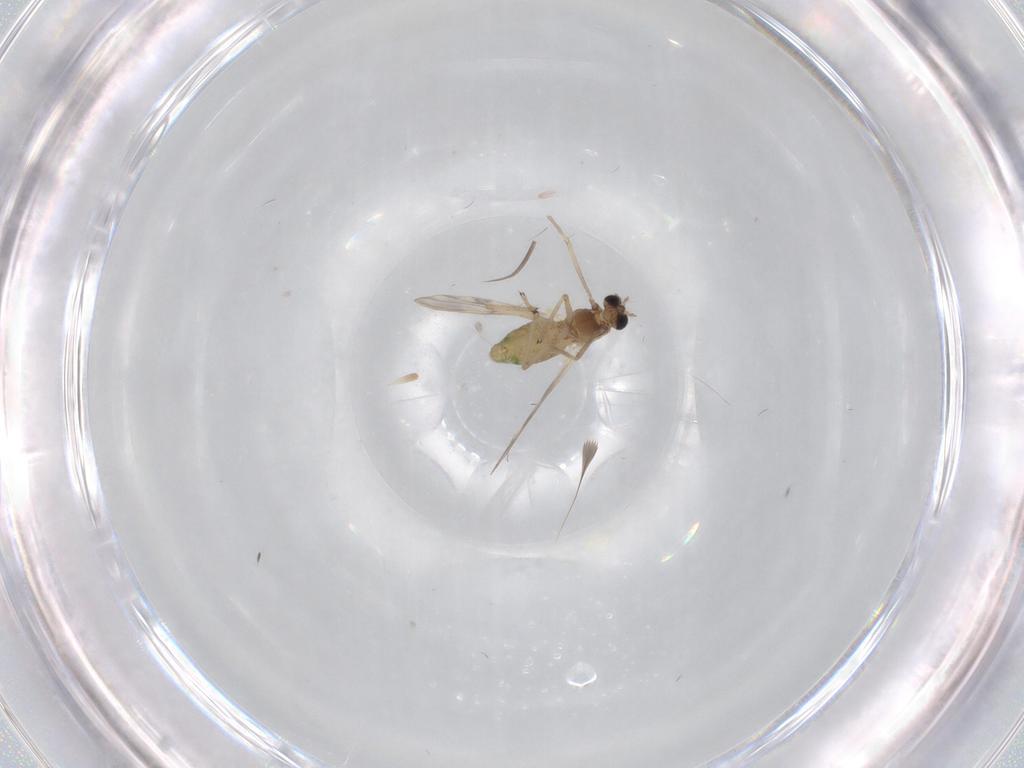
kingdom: Animalia
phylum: Arthropoda
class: Insecta
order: Diptera
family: Chironomidae
